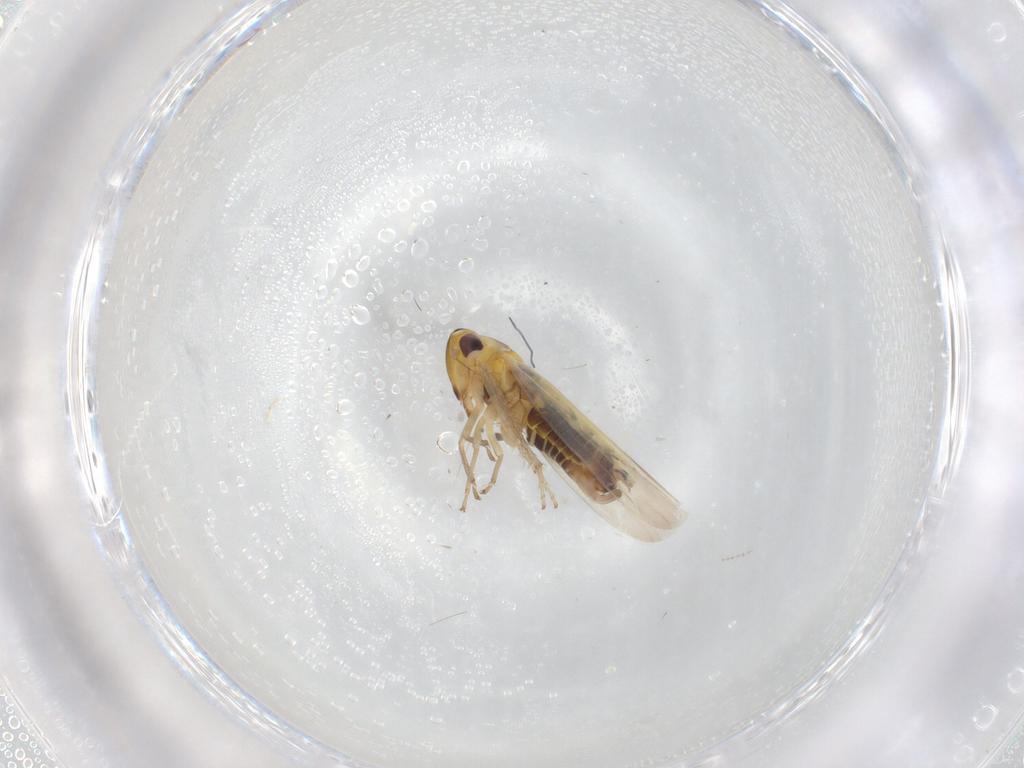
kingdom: Animalia
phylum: Arthropoda
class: Insecta
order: Hemiptera
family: Cicadellidae
